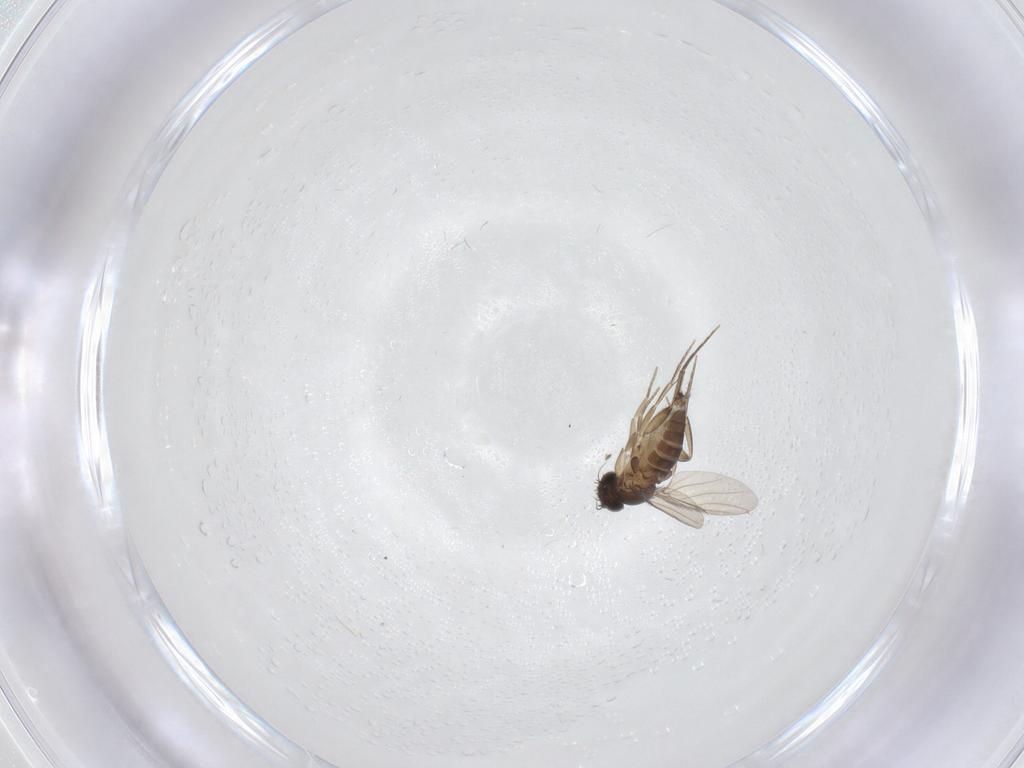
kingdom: Animalia
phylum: Arthropoda
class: Insecta
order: Diptera
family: Phoridae
